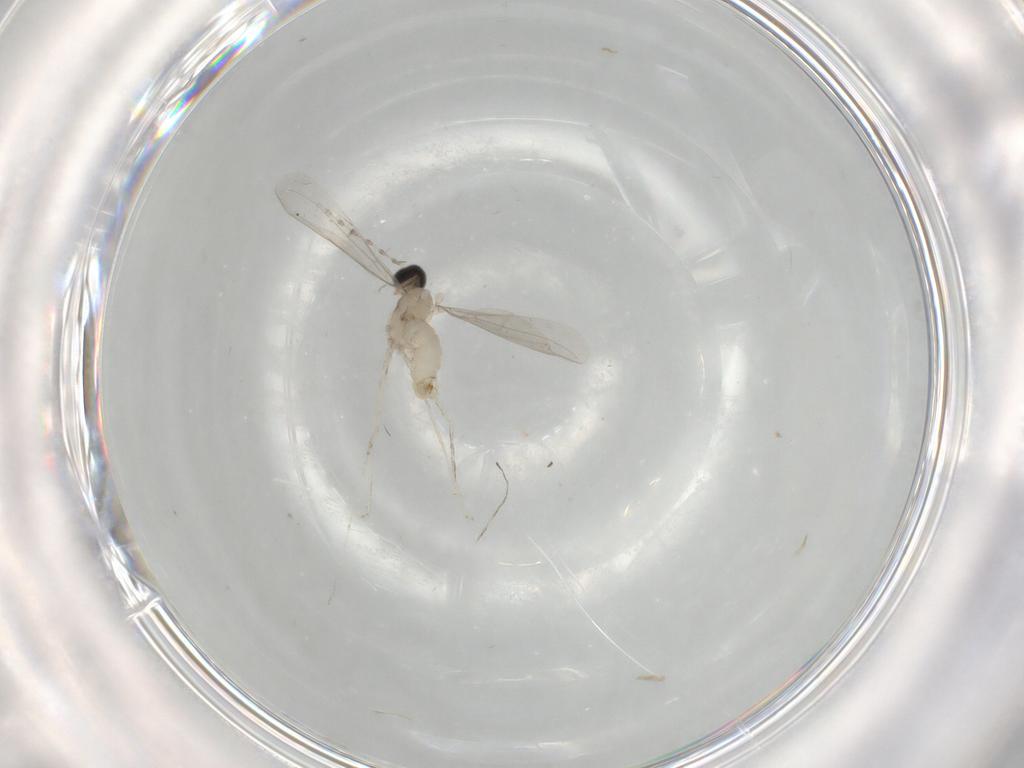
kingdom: Animalia
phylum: Arthropoda
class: Insecta
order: Diptera
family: Cecidomyiidae
